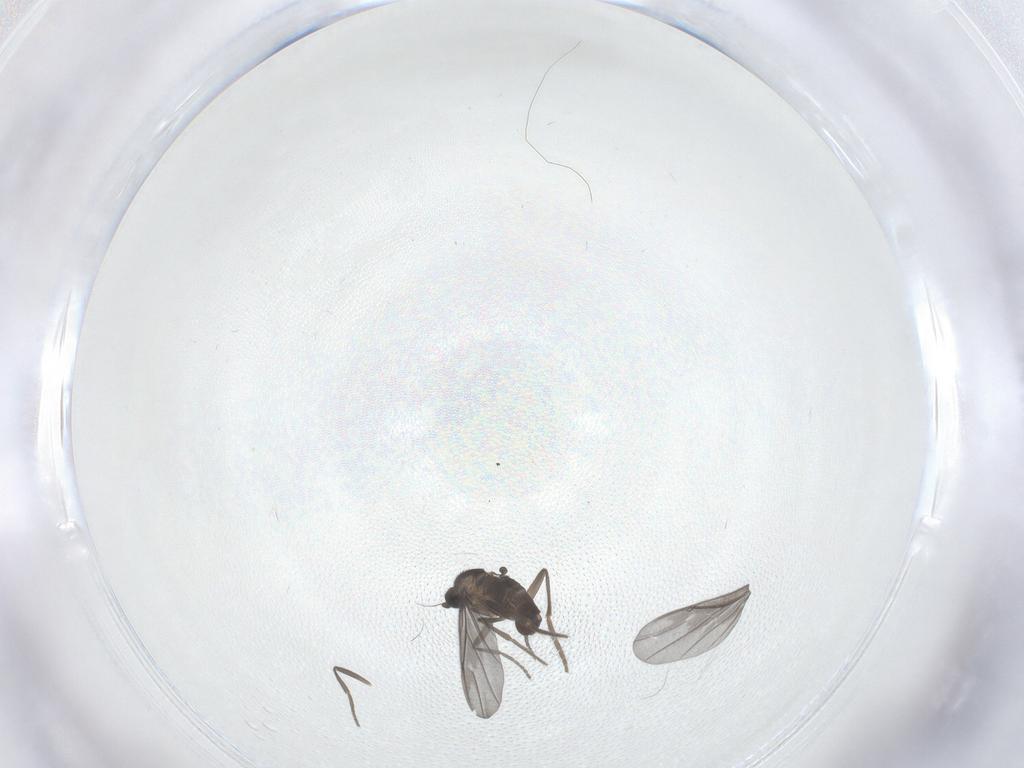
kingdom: Animalia
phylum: Arthropoda
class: Insecta
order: Diptera
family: Phoridae
